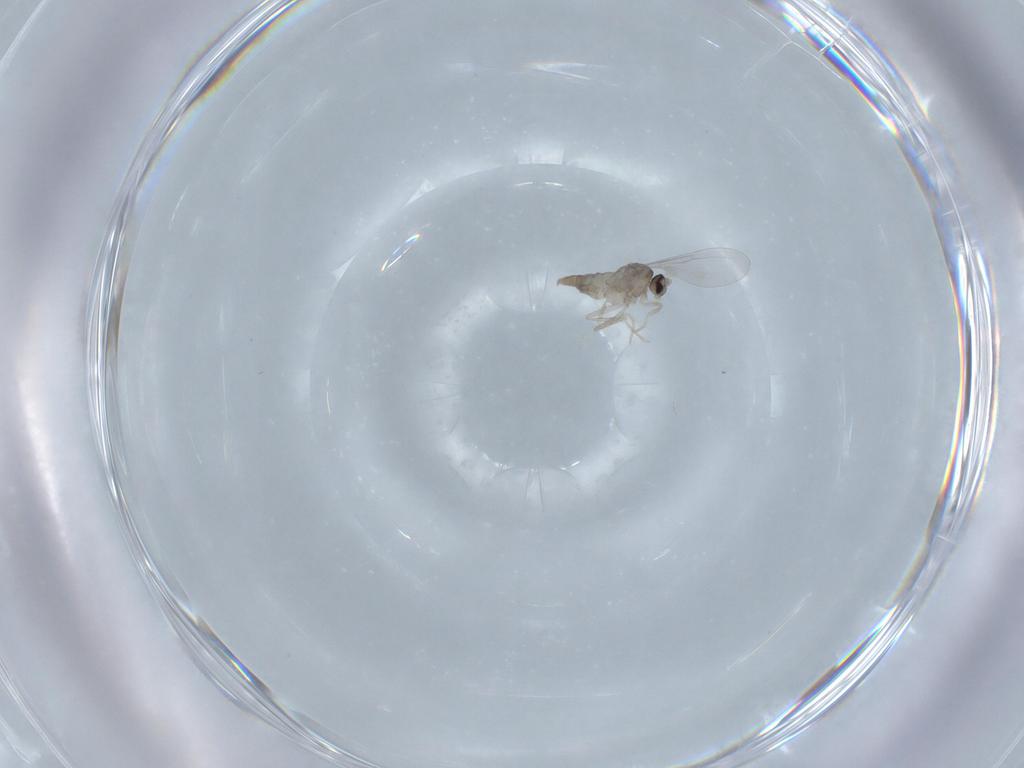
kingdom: Animalia
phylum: Arthropoda
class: Insecta
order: Diptera
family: Cecidomyiidae
